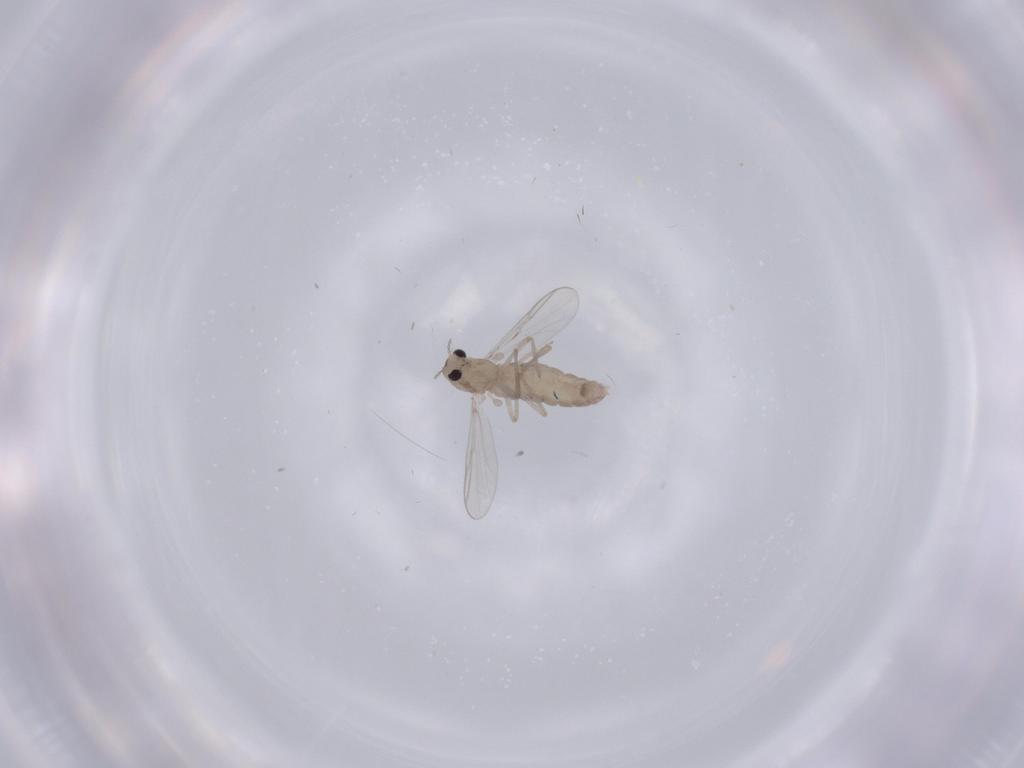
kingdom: Animalia
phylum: Arthropoda
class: Insecta
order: Diptera
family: Chironomidae
